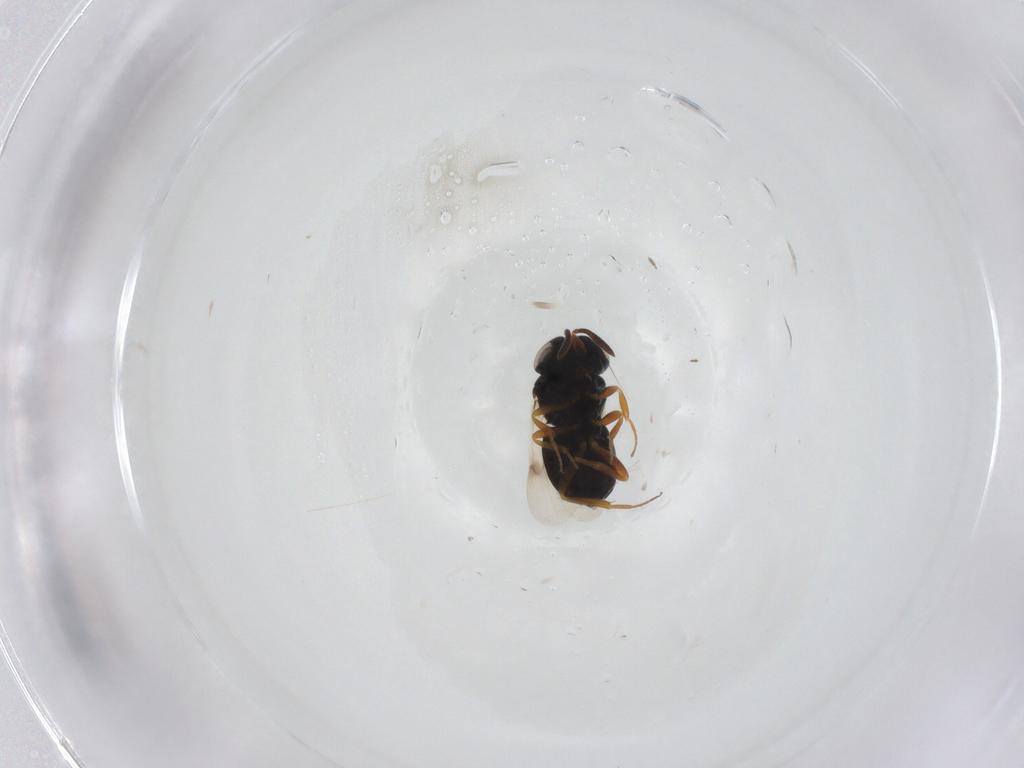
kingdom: Animalia
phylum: Arthropoda
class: Insecta
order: Hymenoptera
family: Scelionidae
